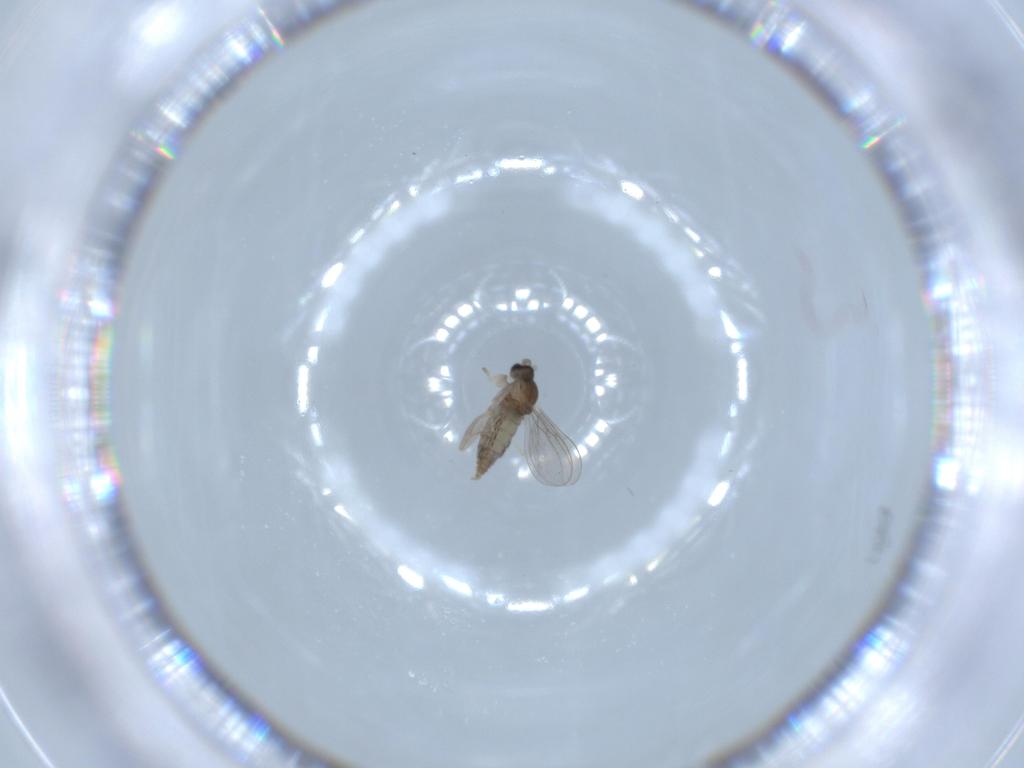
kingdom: Animalia
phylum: Arthropoda
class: Insecta
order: Diptera
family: Cecidomyiidae
